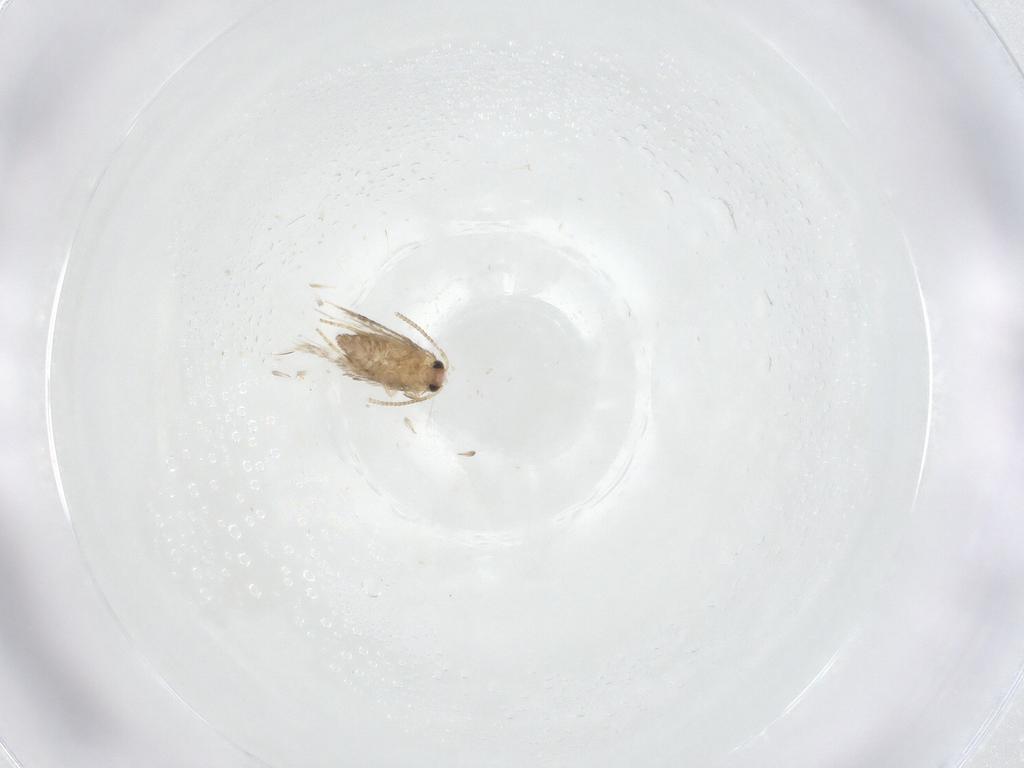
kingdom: Animalia
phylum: Arthropoda
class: Insecta
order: Lepidoptera
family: Nepticulidae
